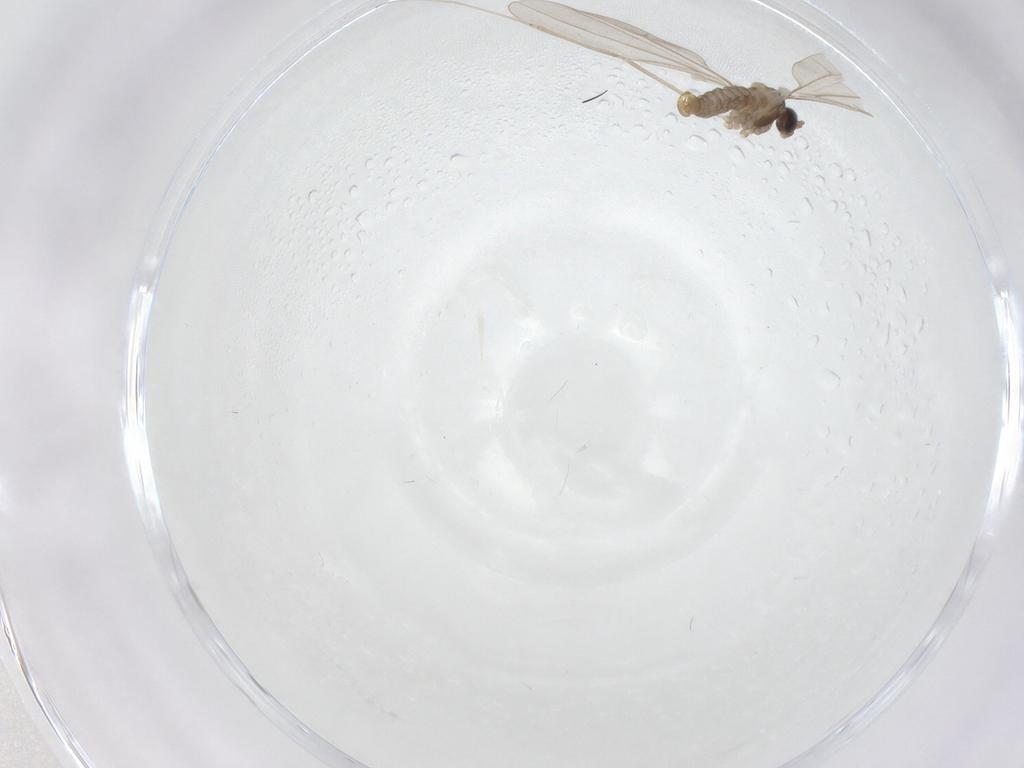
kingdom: Animalia
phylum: Arthropoda
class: Insecta
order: Diptera
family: Cecidomyiidae
